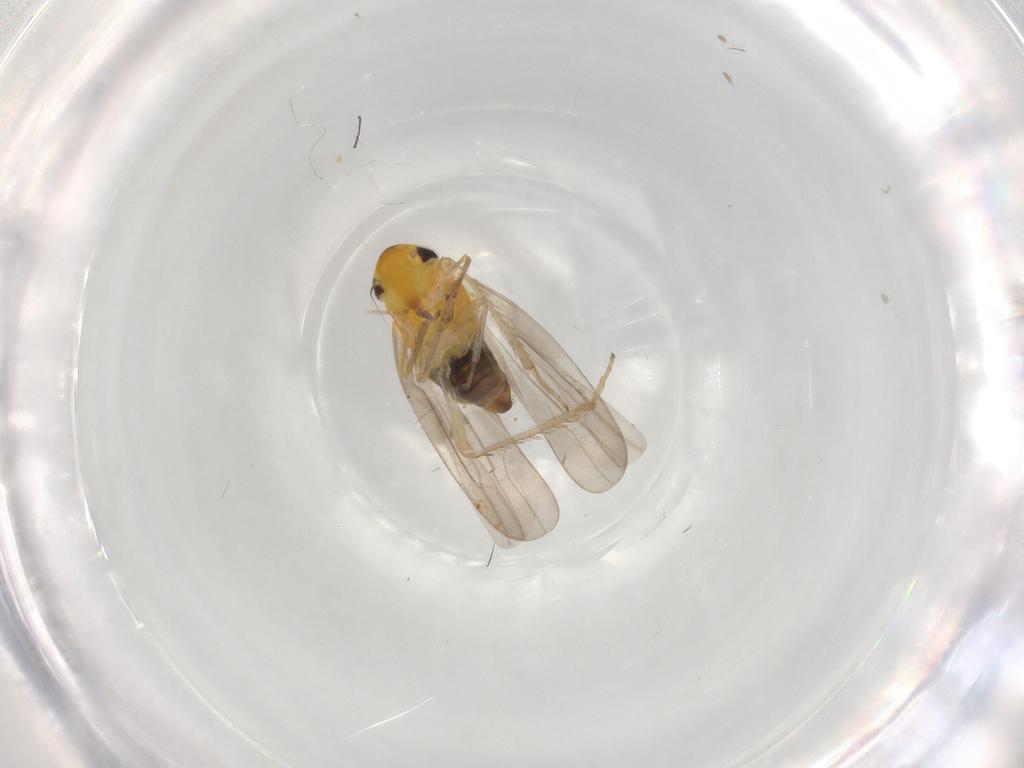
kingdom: Animalia
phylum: Arthropoda
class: Insecta
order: Hemiptera
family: Cicadellidae
